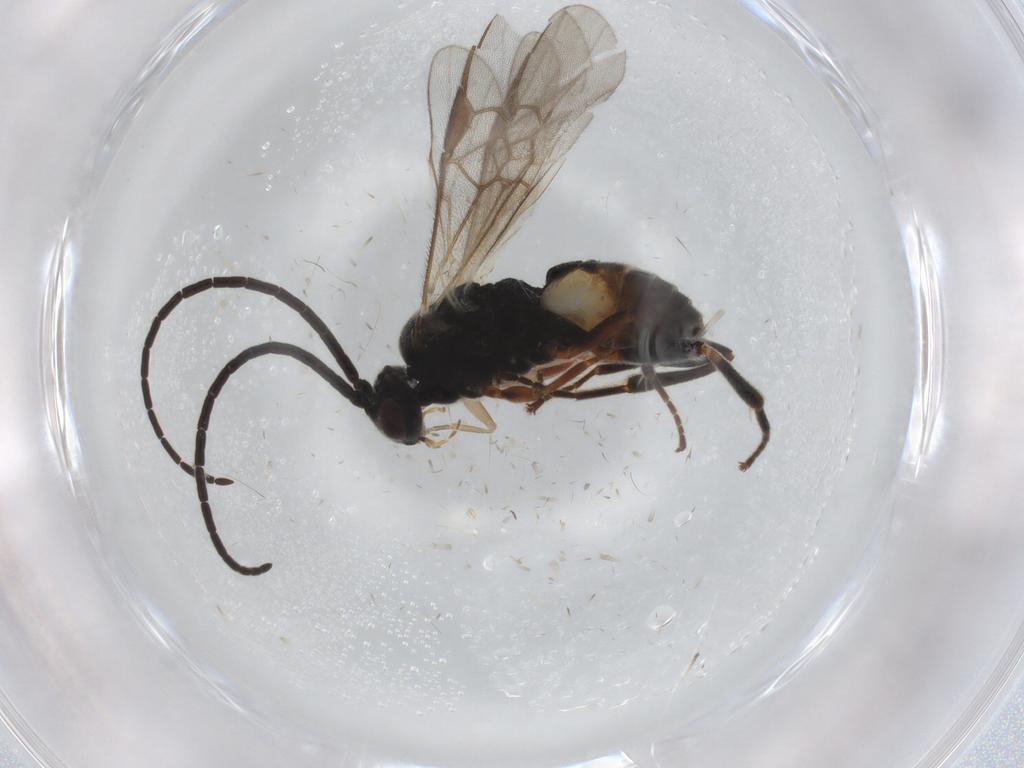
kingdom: Animalia
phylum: Arthropoda
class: Insecta
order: Hymenoptera
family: Braconidae
